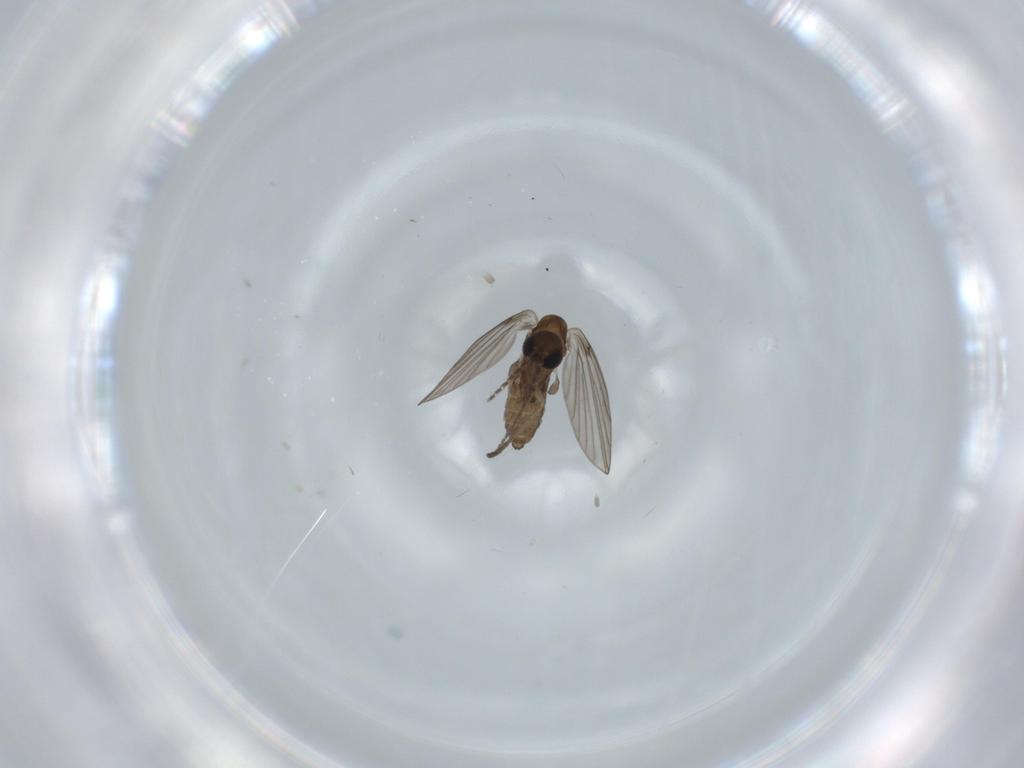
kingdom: Animalia
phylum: Arthropoda
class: Insecta
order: Diptera
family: Psychodidae
